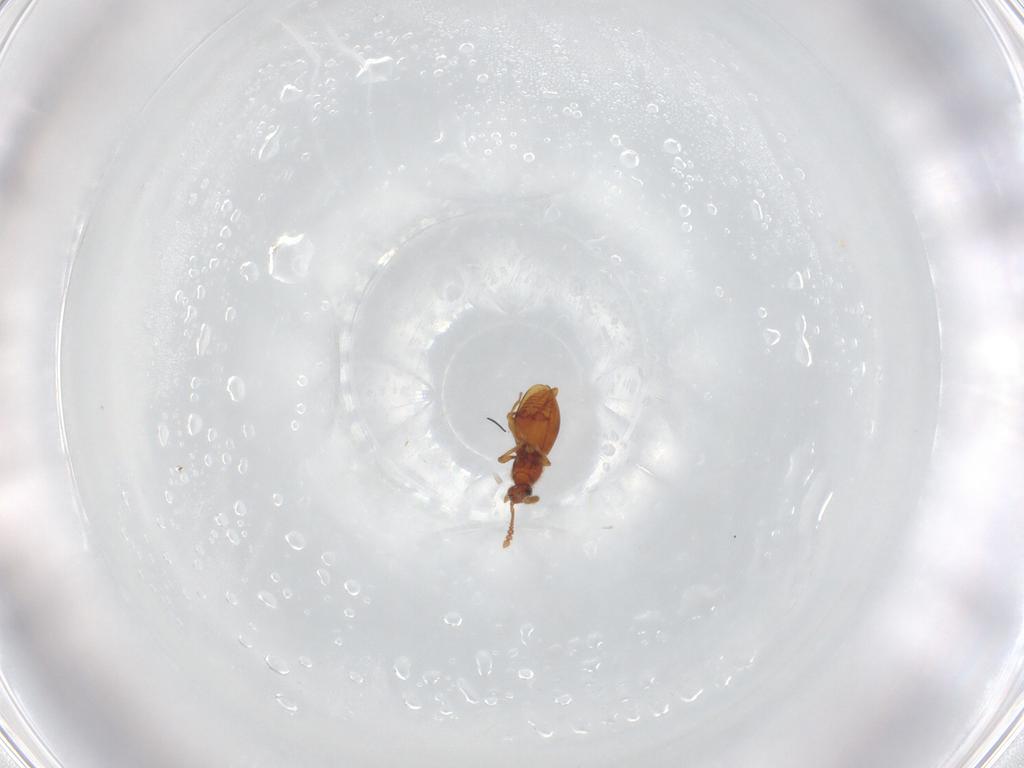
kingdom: Animalia
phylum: Arthropoda
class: Insecta
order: Coleoptera
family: Staphylinidae
